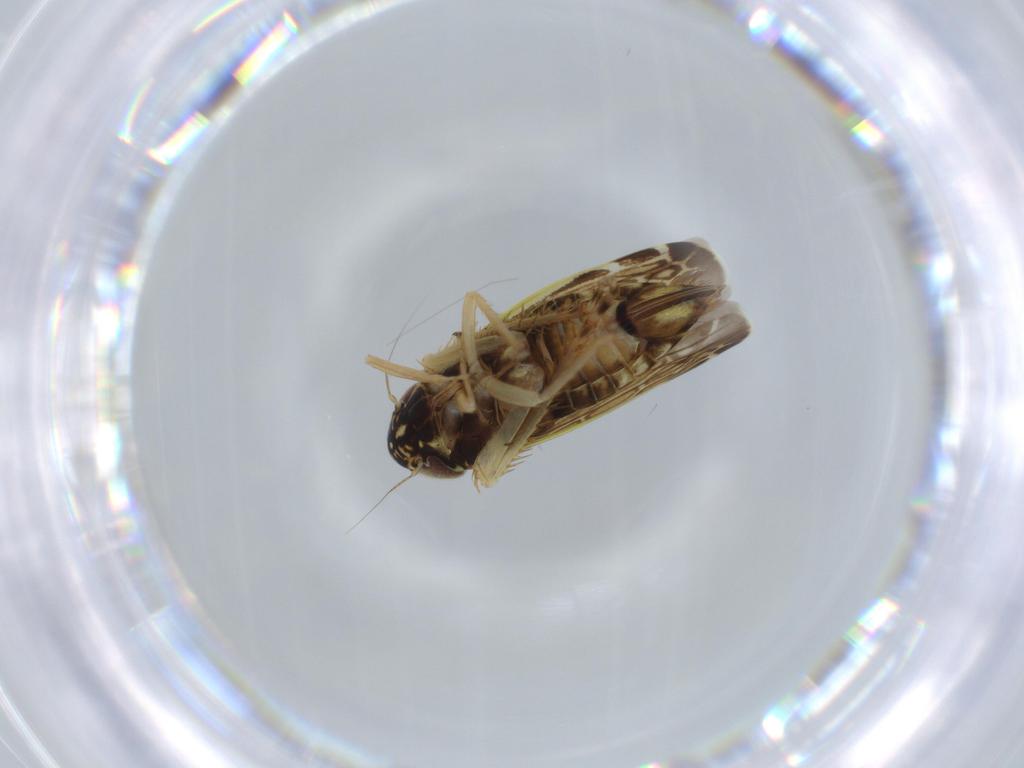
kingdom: Animalia
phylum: Arthropoda
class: Insecta
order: Hemiptera
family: Cicadellidae
